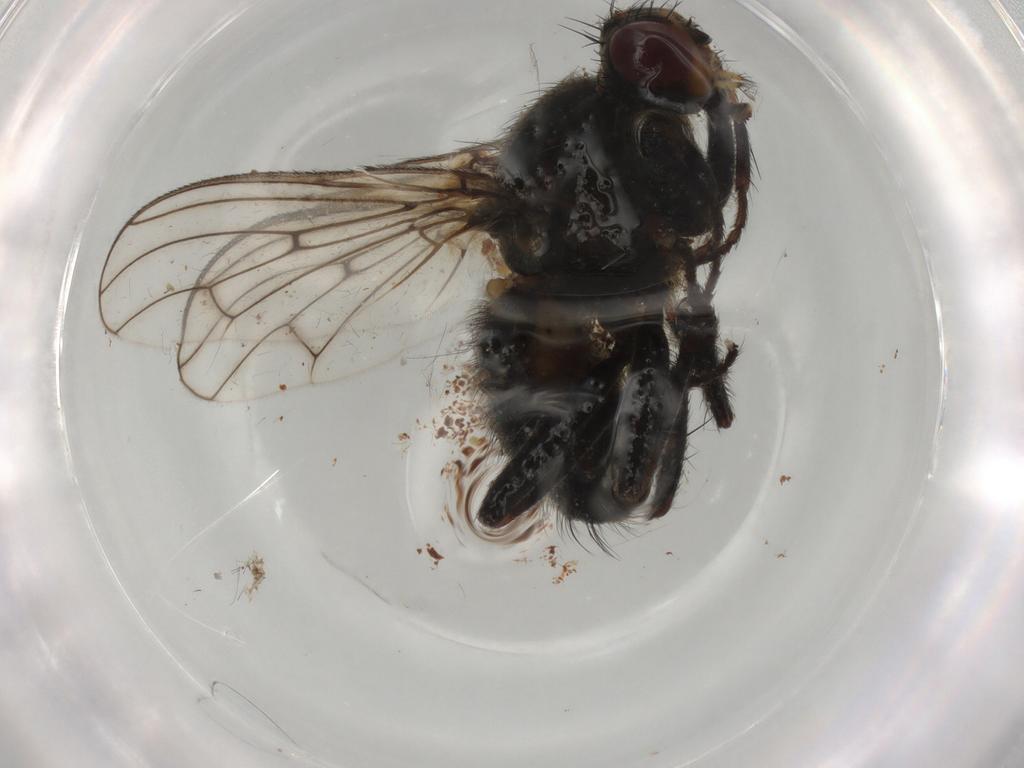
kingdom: Animalia
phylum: Arthropoda
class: Insecta
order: Diptera
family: Chironomidae
